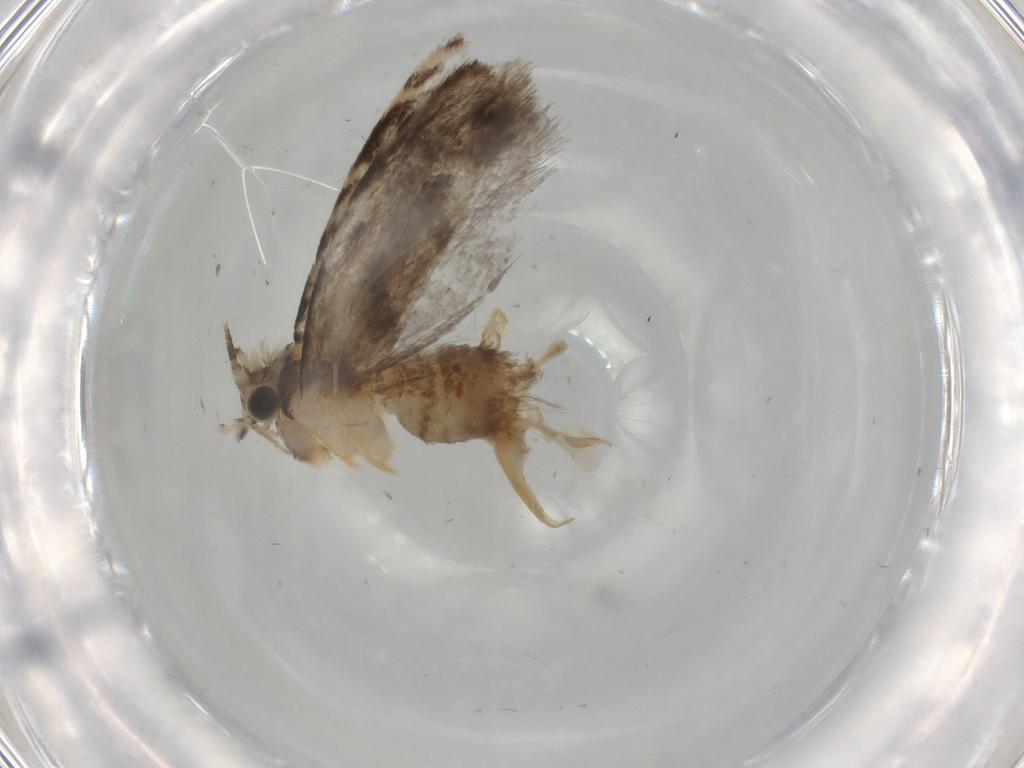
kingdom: Animalia
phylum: Arthropoda
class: Insecta
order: Lepidoptera
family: Tineidae
